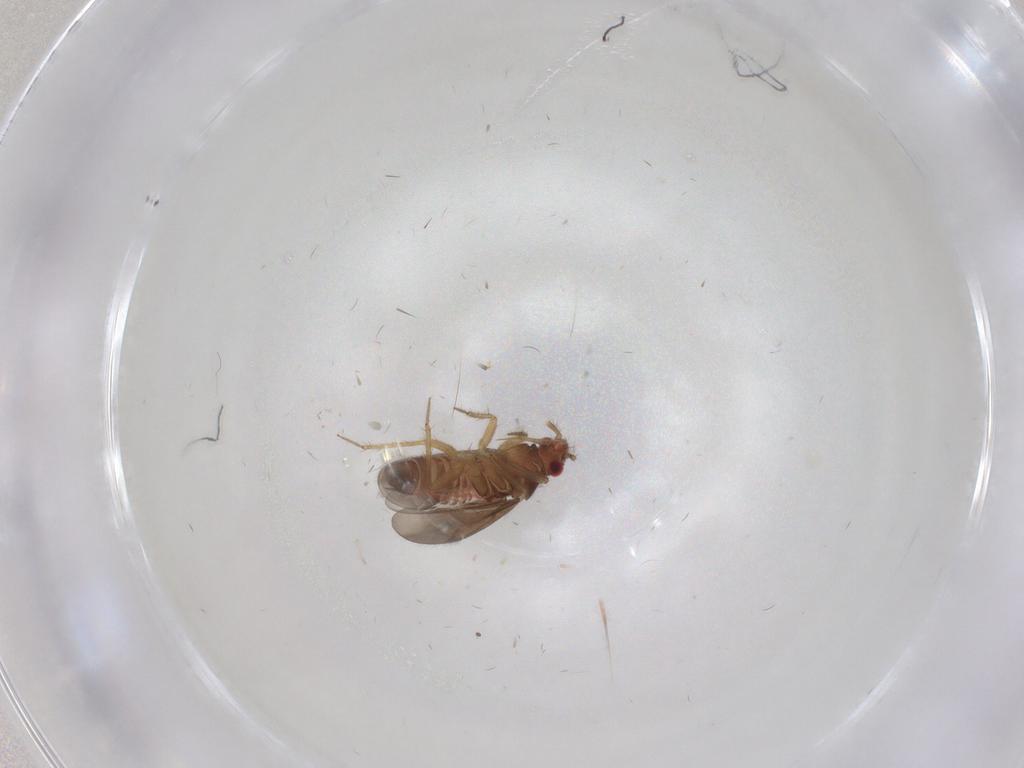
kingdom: Animalia
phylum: Arthropoda
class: Insecta
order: Hemiptera
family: Ceratocombidae
